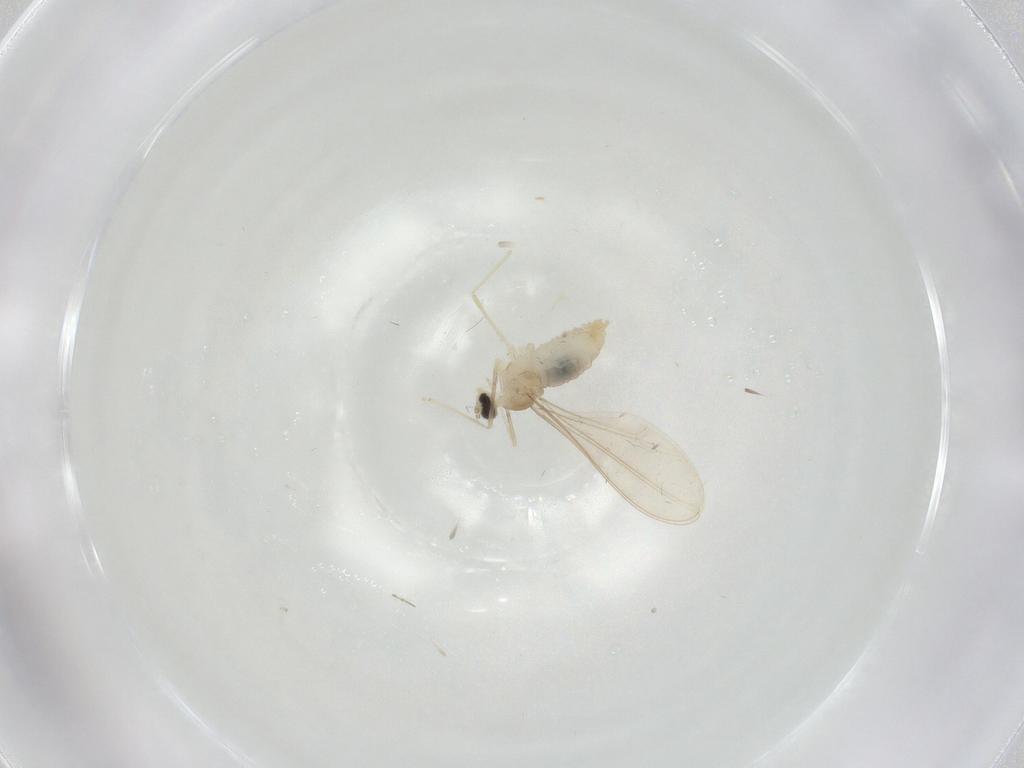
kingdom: Animalia
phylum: Arthropoda
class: Insecta
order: Diptera
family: Cecidomyiidae
